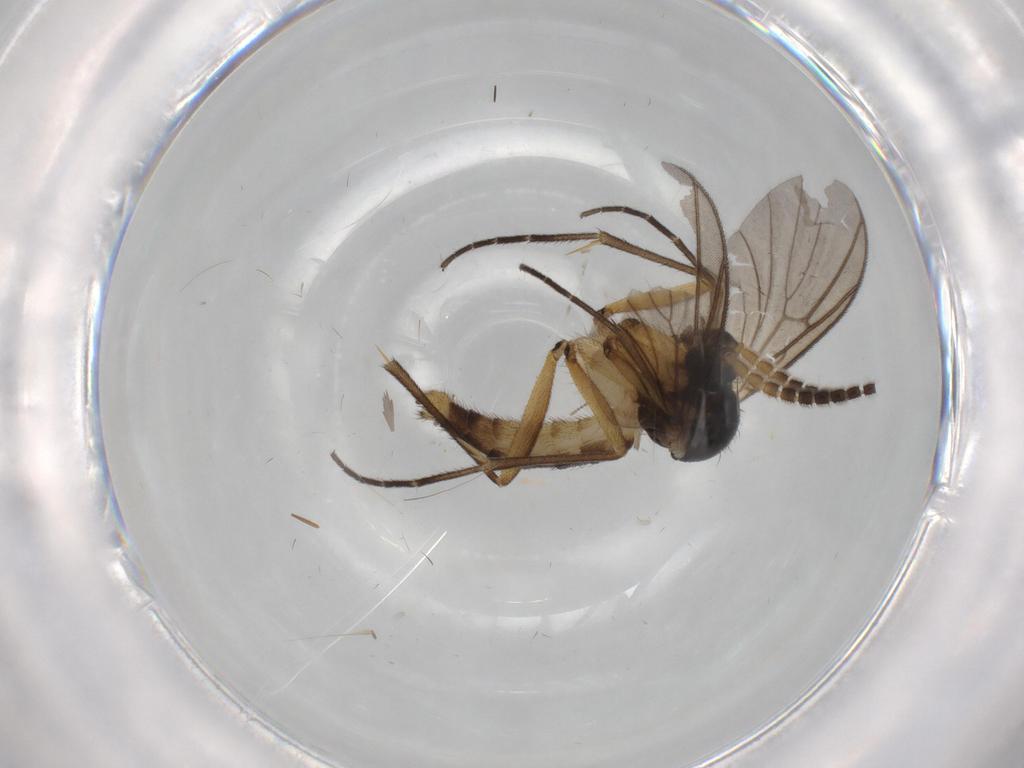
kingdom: Animalia
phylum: Arthropoda
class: Insecta
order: Diptera
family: Chironomidae
